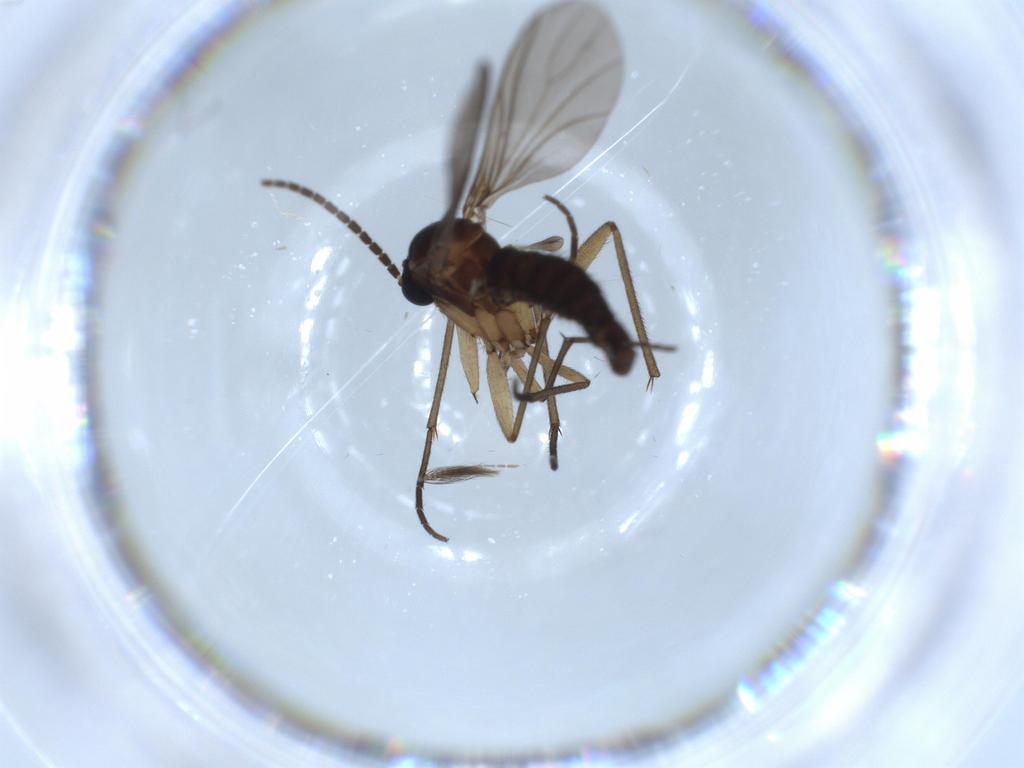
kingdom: Animalia
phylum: Arthropoda
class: Insecta
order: Diptera
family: Sciaridae
